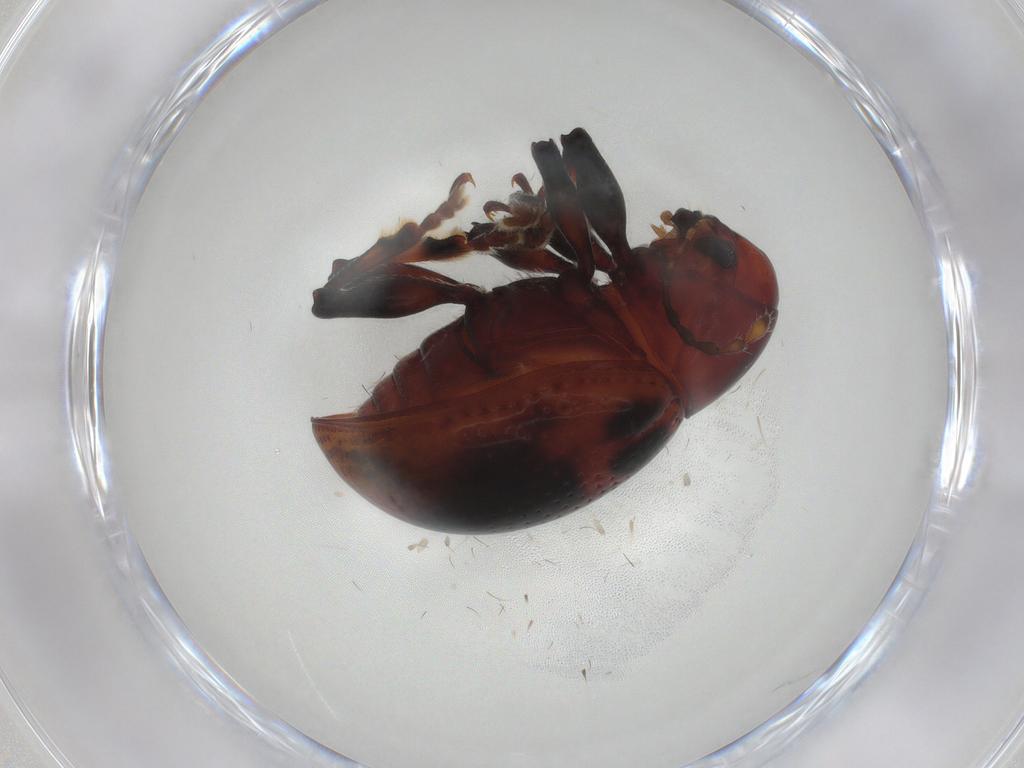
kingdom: Animalia
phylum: Arthropoda
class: Insecta
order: Coleoptera
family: Chrysomelidae
